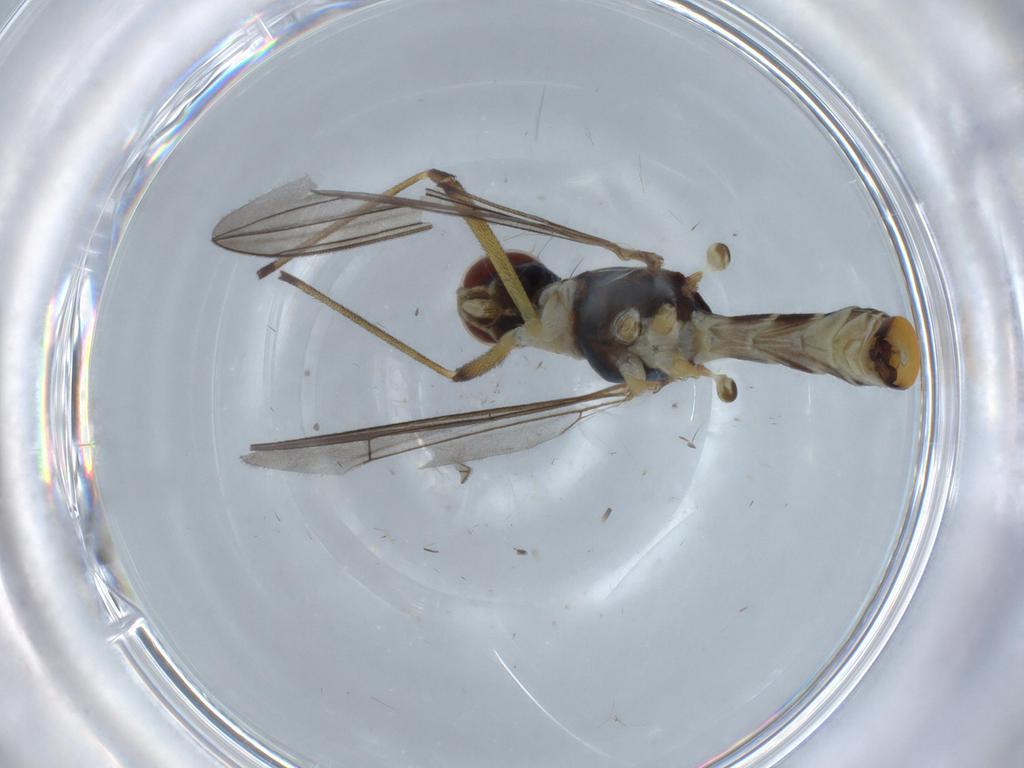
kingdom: Animalia
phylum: Arthropoda
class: Insecta
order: Diptera
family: Micropezidae
